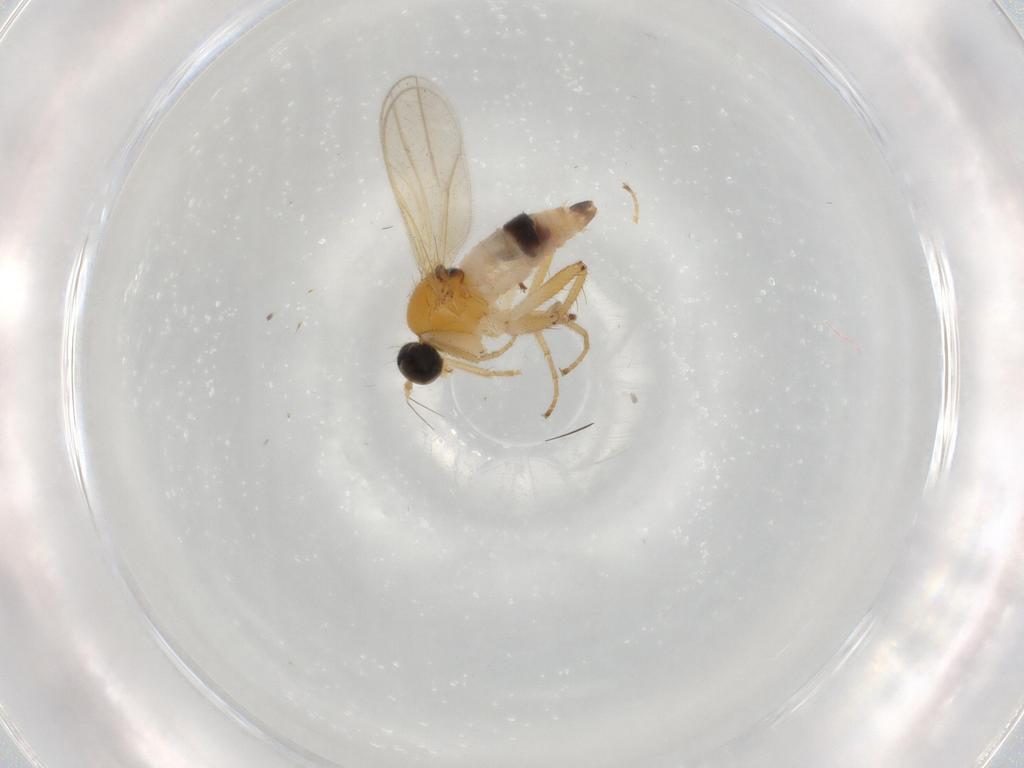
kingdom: Animalia
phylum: Arthropoda
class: Insecta
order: Diptera
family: Hybotidae
